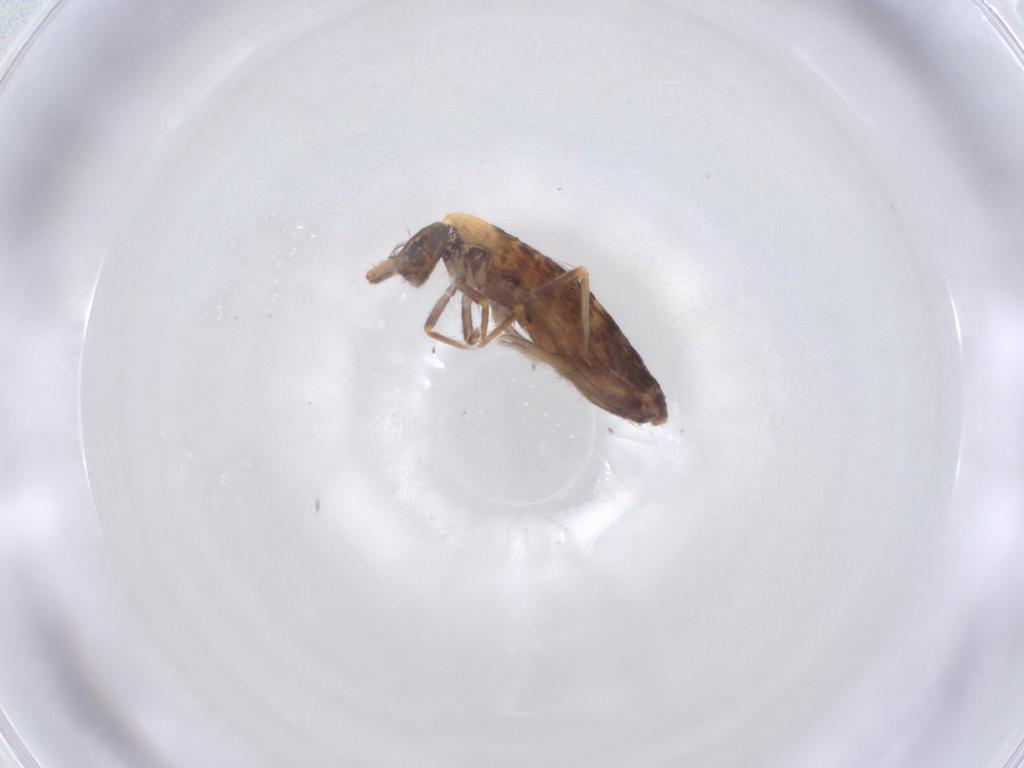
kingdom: Animalia
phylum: Arthropoda
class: Collembola
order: Entomobryomorpha
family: Entomobryidae
